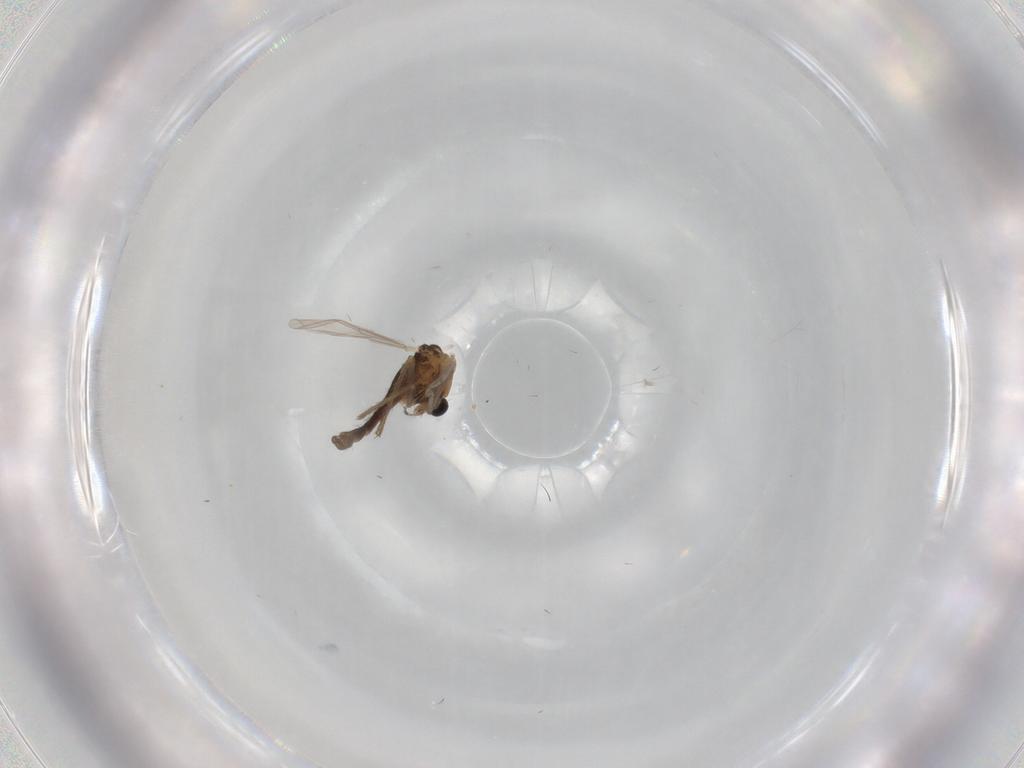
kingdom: Animalia
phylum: Arthropoda
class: Insecta
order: Diptera
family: Chironomidae
